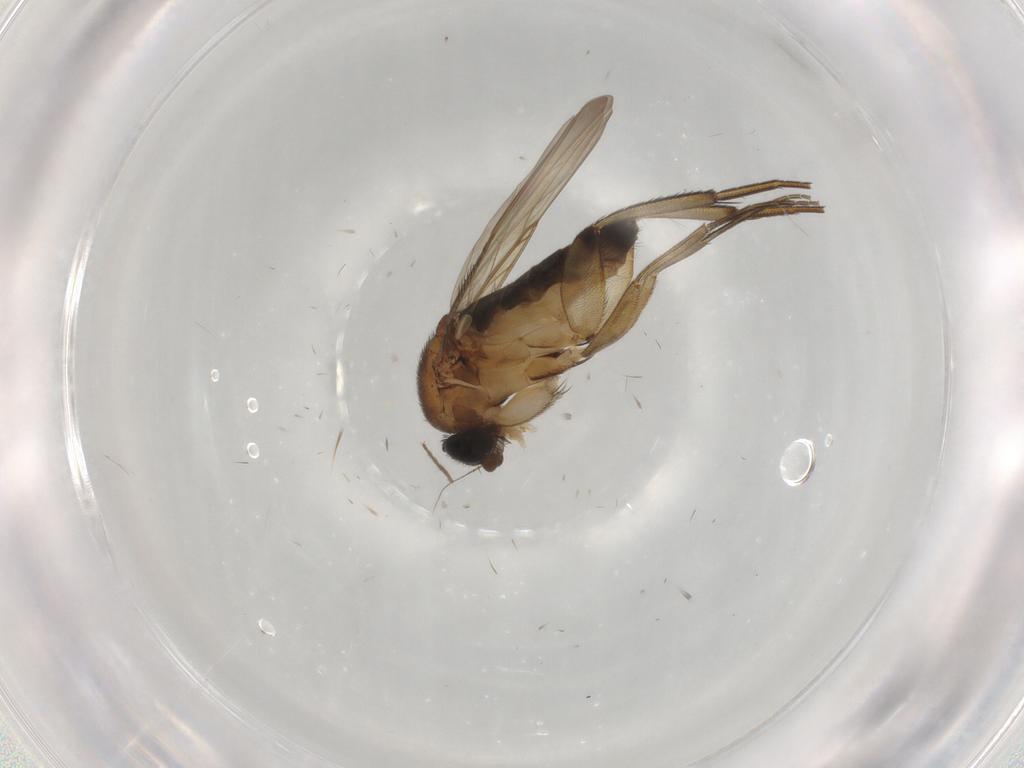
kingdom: Animalia
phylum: Arthropoda
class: Insecta
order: Diptera
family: Phoridae
